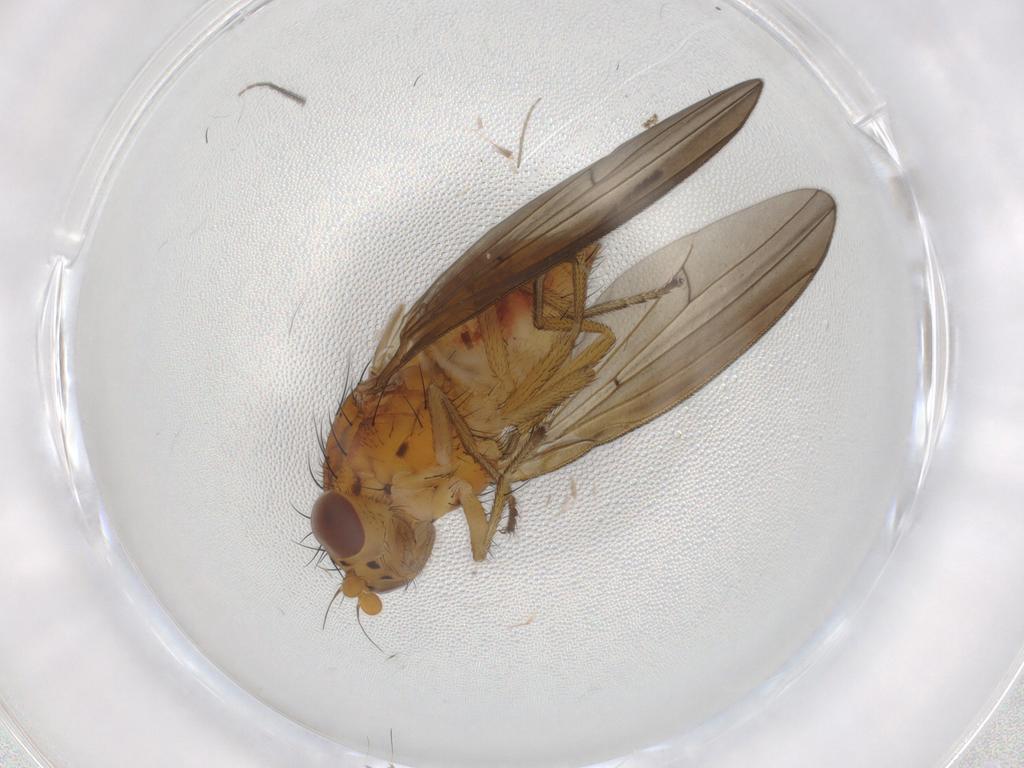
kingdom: Animalia
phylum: Arthropoda
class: Insecta
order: Diptera
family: Chironomidae
